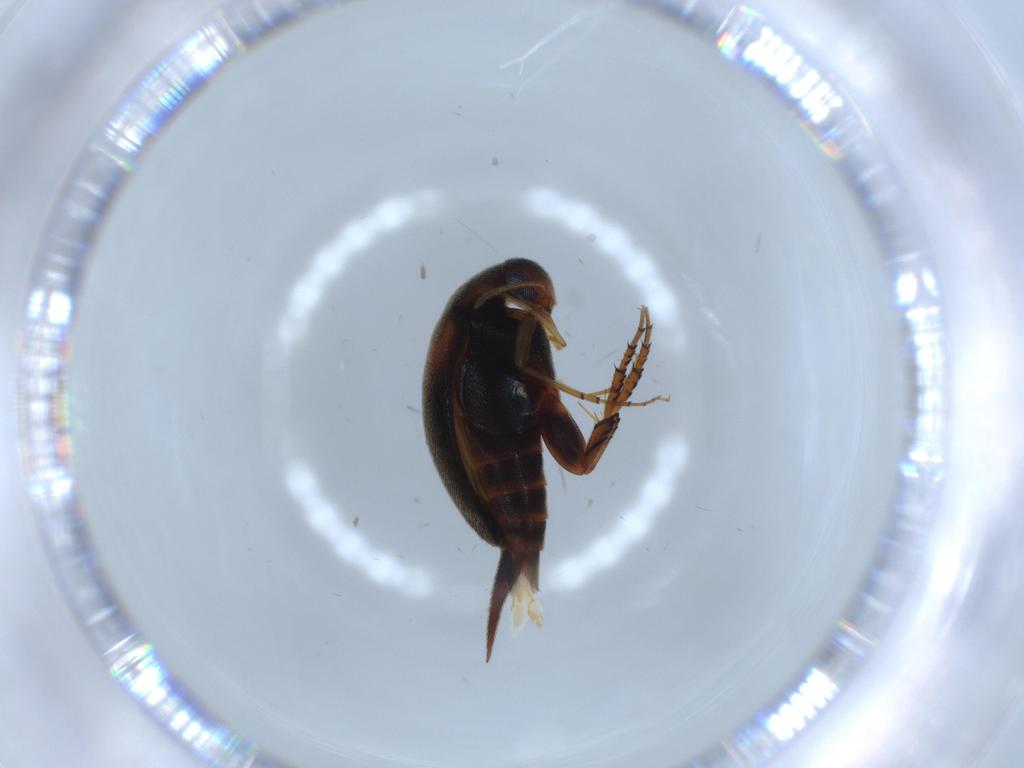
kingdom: Animalia
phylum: Arthropoda
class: Insecta
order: Coleoptera
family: Mordellidae
